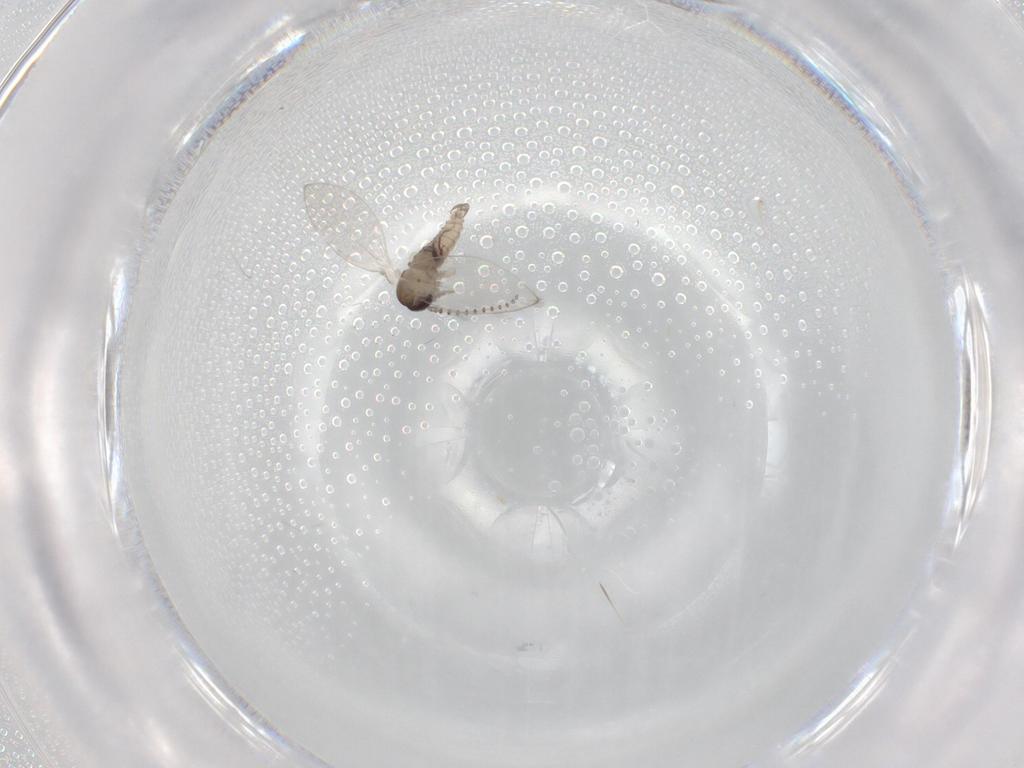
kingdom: Animalia
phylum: Arthropoda
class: Insecta
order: Diptera
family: Psychodidae
